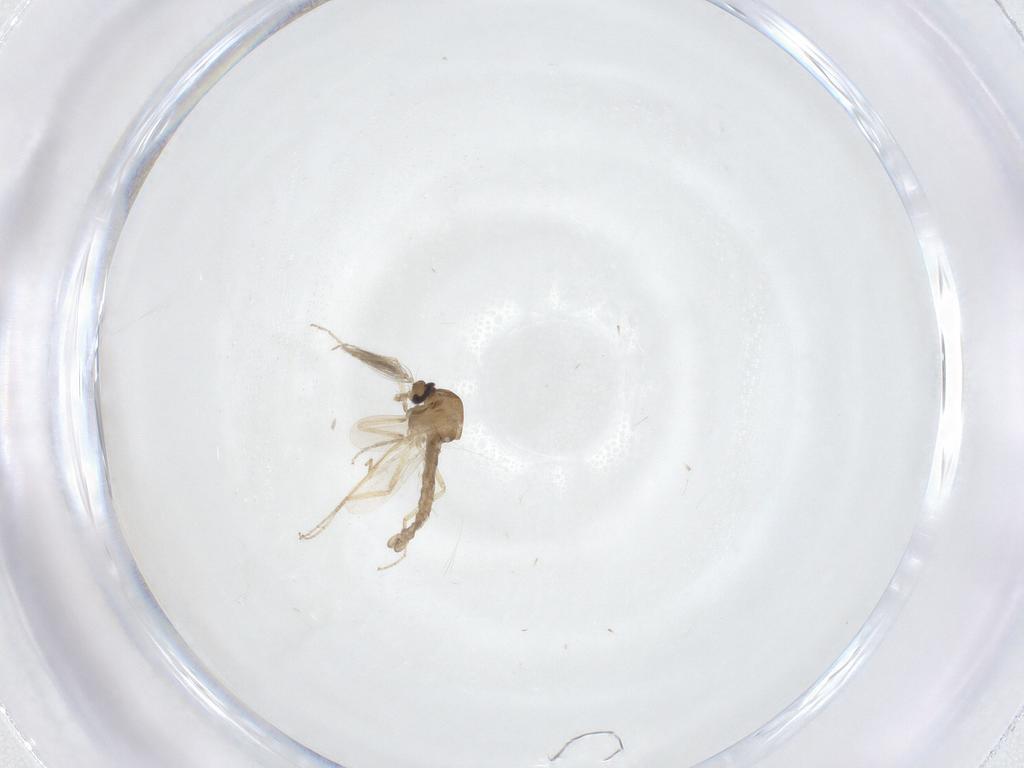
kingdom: Animalia
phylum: Arthropoda
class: Insecta
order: Diptera
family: Ceratopogonidae
